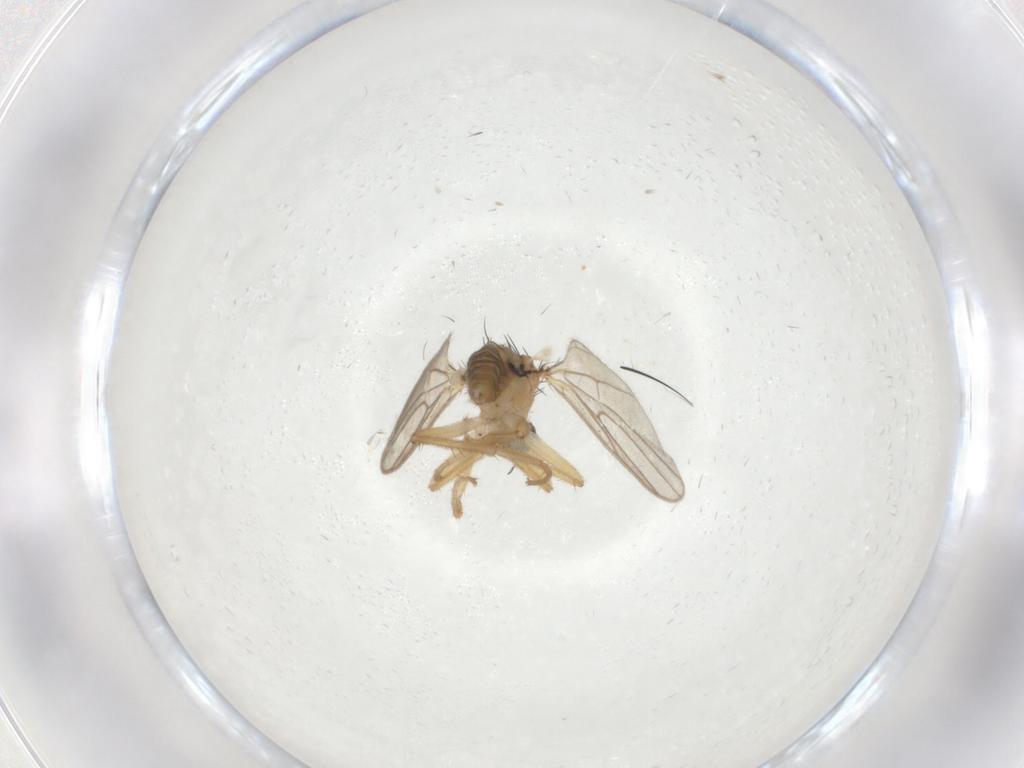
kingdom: Animalia
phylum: Arthropoda
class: Insecta
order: Diptera
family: Hybotidae
